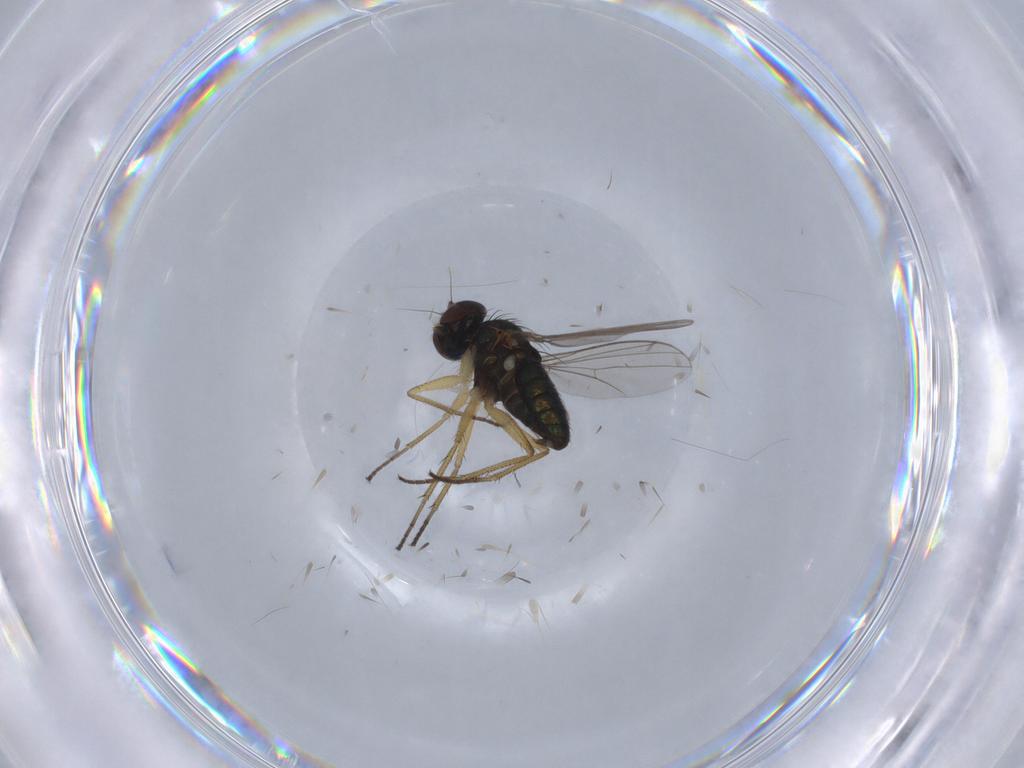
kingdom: Animalia
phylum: Arthropoda
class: Insecta
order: Diptera
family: Chironomidae
